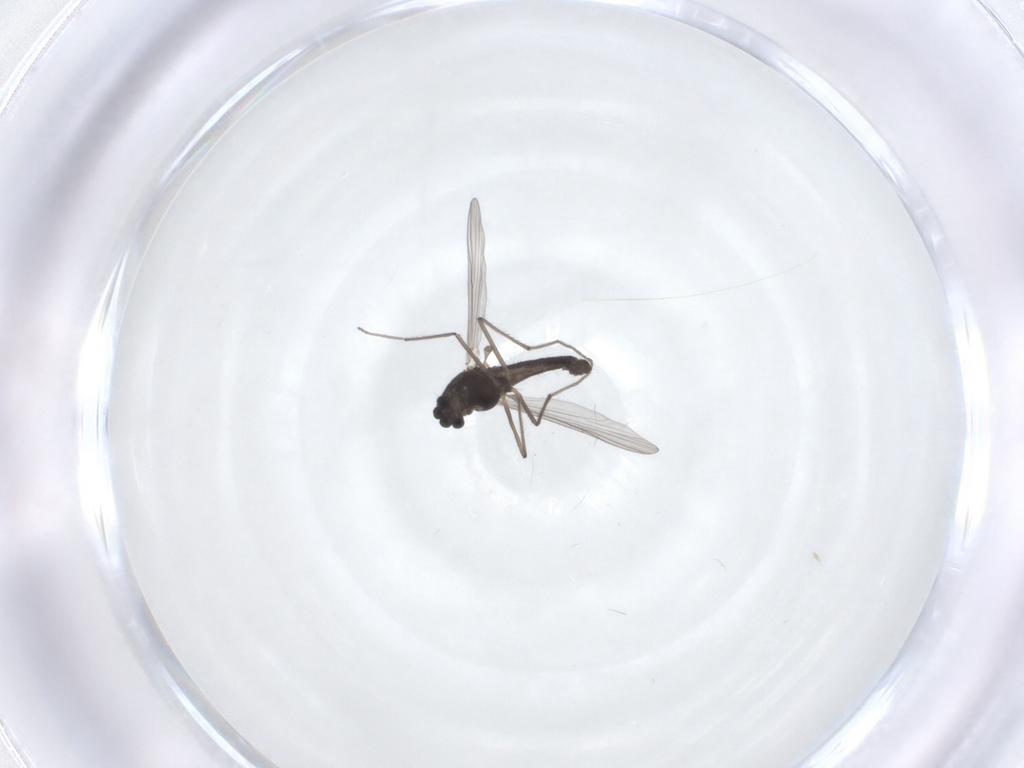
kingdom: Animalia
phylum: Arthropoda
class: Insecta
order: Diptera
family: Chironomidae
